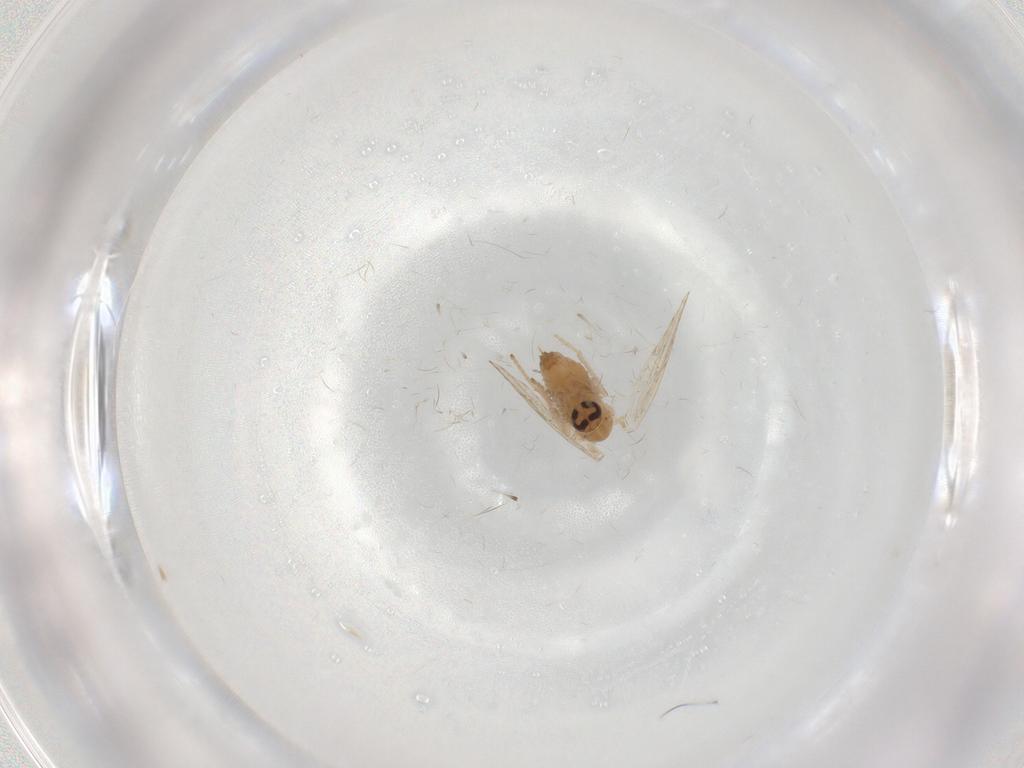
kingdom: Animalia
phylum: Arthropoda
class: Insecta
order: Diptera
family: Psychodidae
